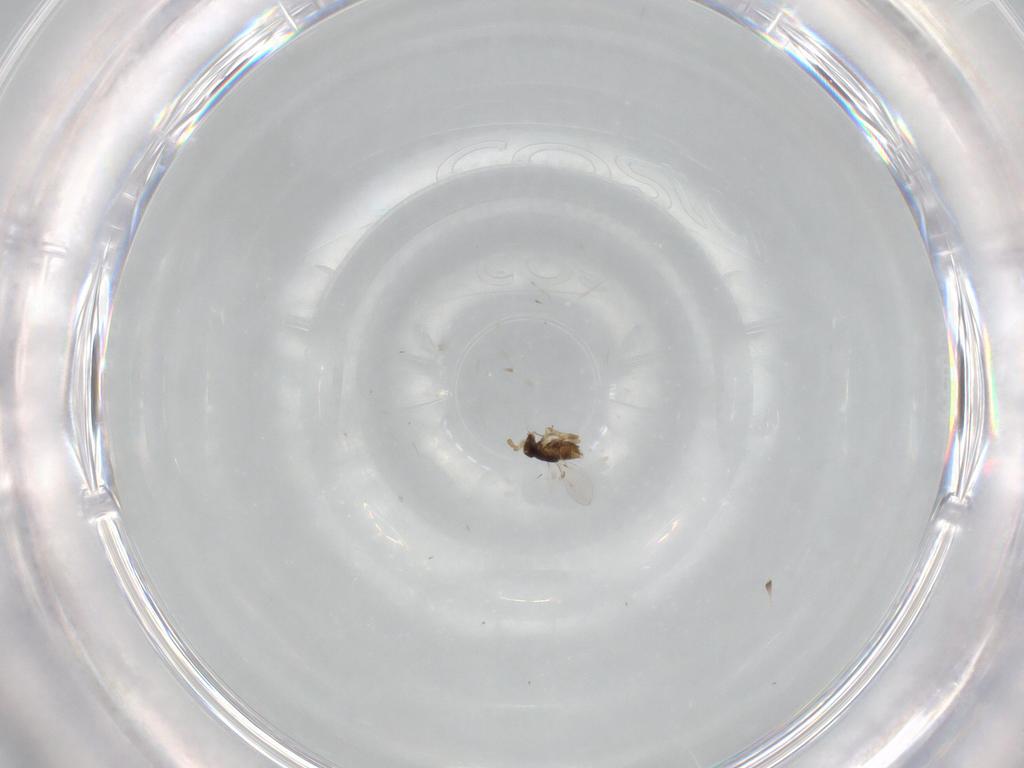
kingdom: Animalia
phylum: Arthropoda
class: Insecta
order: Hymenoptera
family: Encyrtidae
